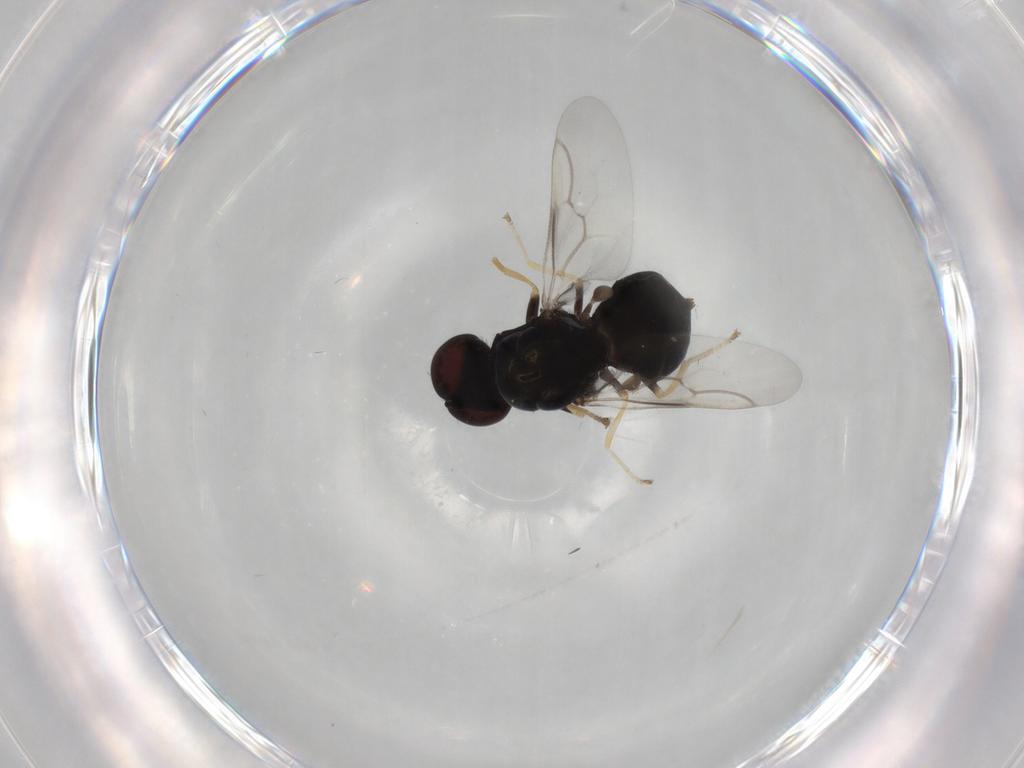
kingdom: Animalia
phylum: Arthropoda
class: Insecta
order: Diptera
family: Stratiomyidae
